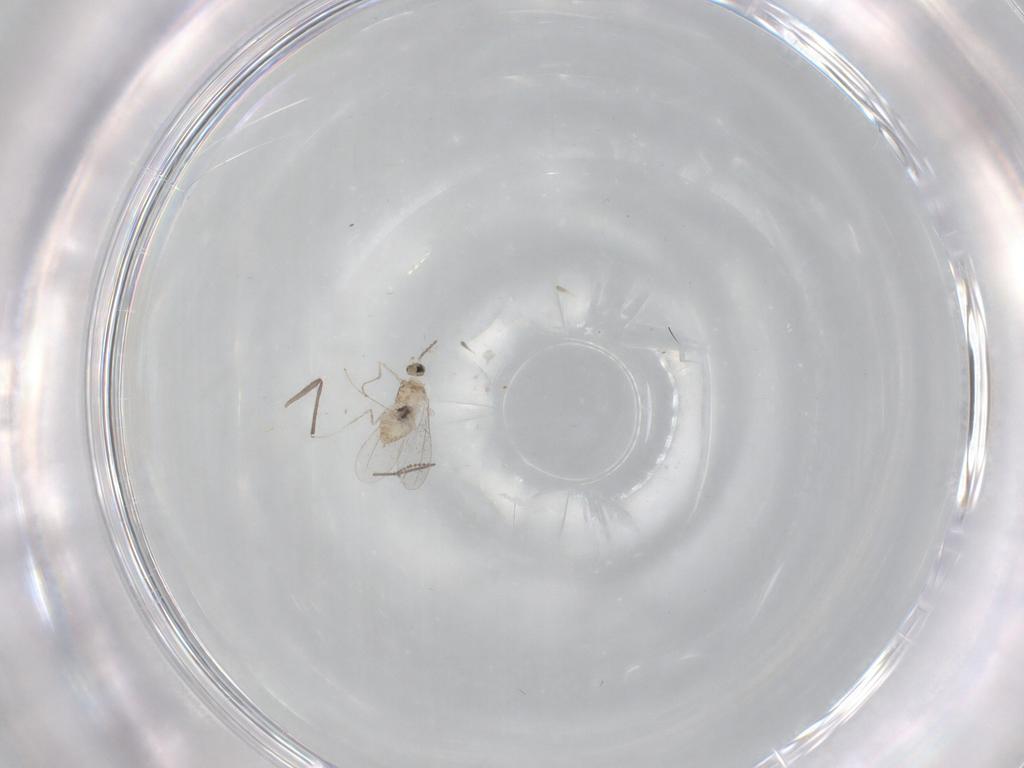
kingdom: Animalia
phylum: Arthropoda
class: Insecta
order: Diptera
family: Cecidomyiidae
